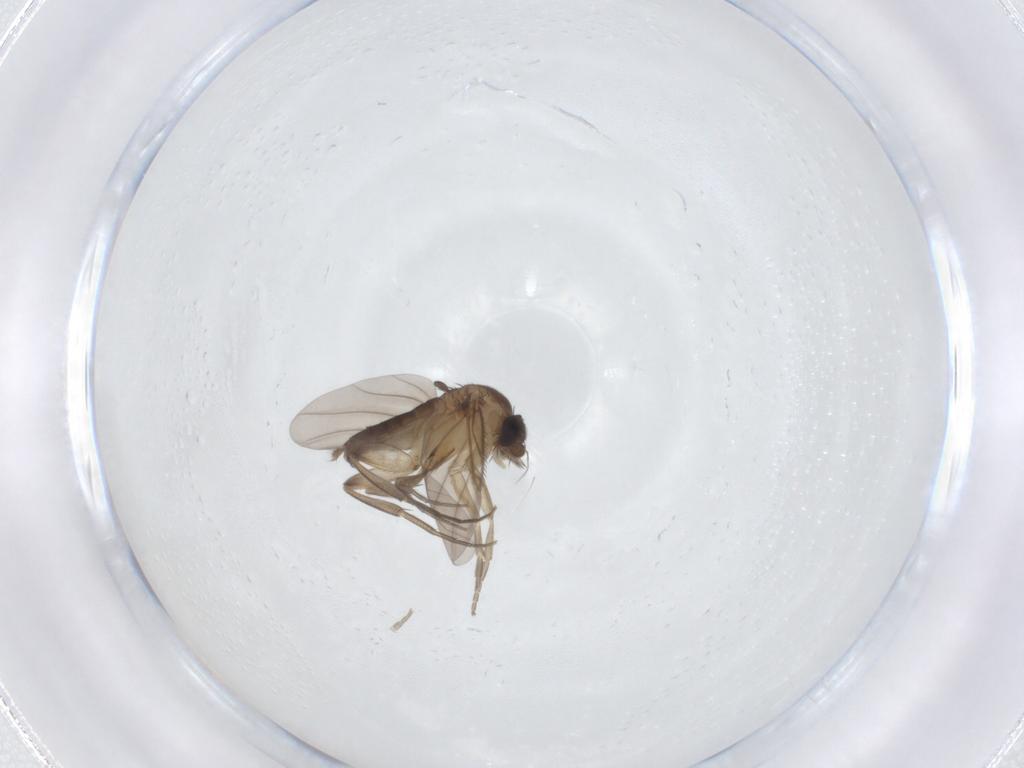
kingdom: Animalia
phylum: Arthropoda
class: Insecta
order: Diptera
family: Phoridae
